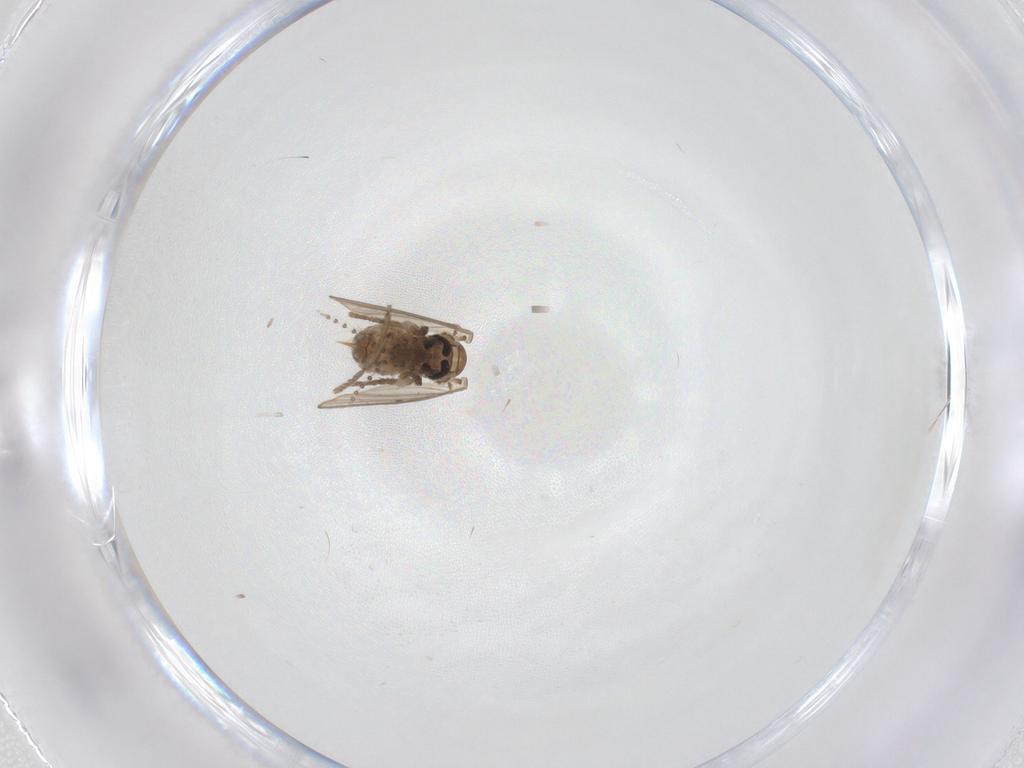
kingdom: Animalia
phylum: Arthropoda
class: Insecta
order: Diptera
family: Psychodidae
